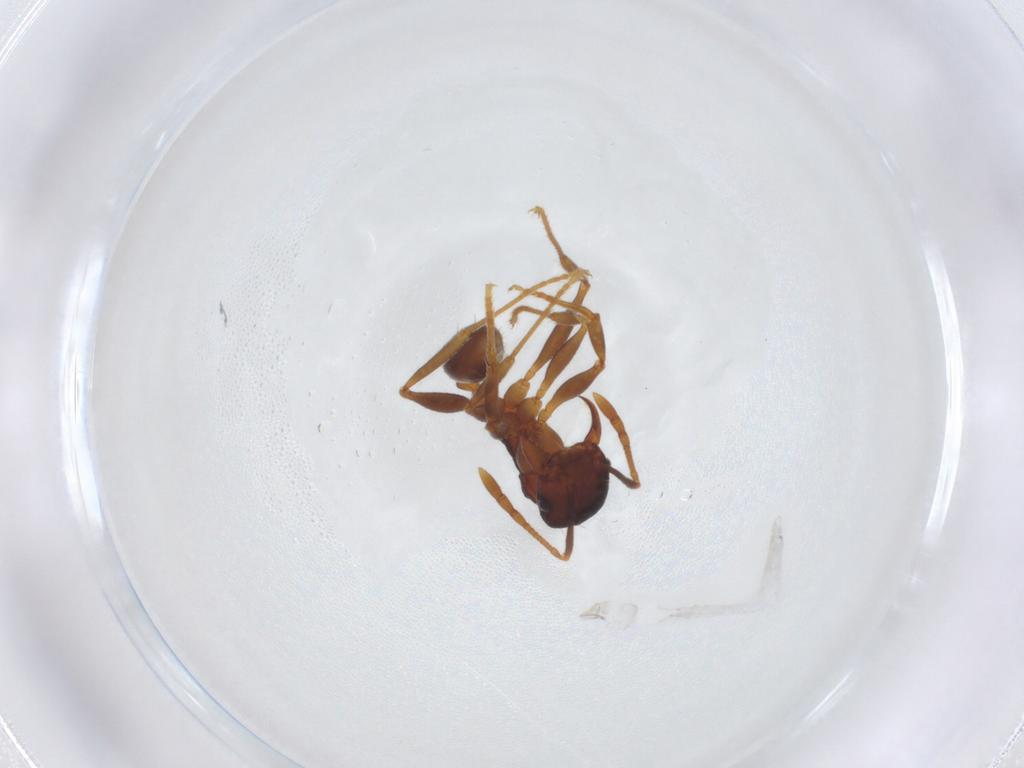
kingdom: Animalia
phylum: Arthropoda
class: Insecta
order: Hymenoptera
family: Formicidae
